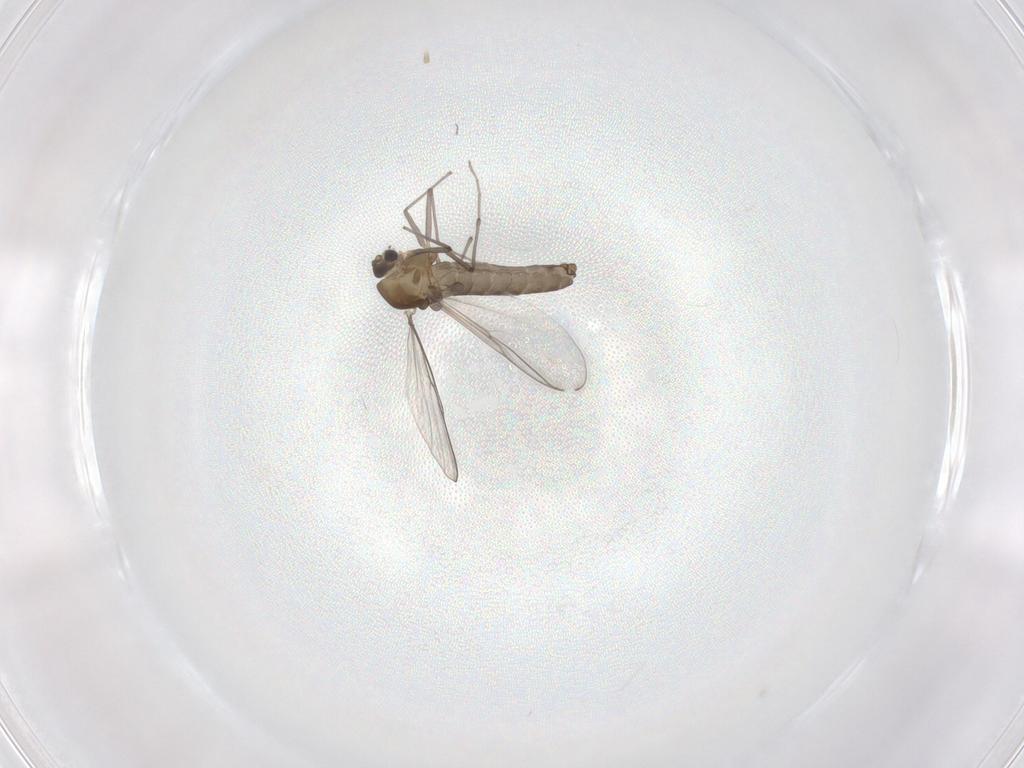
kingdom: Animalia
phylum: Arthropoda
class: Insecta
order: Diptera
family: Chironomidae
